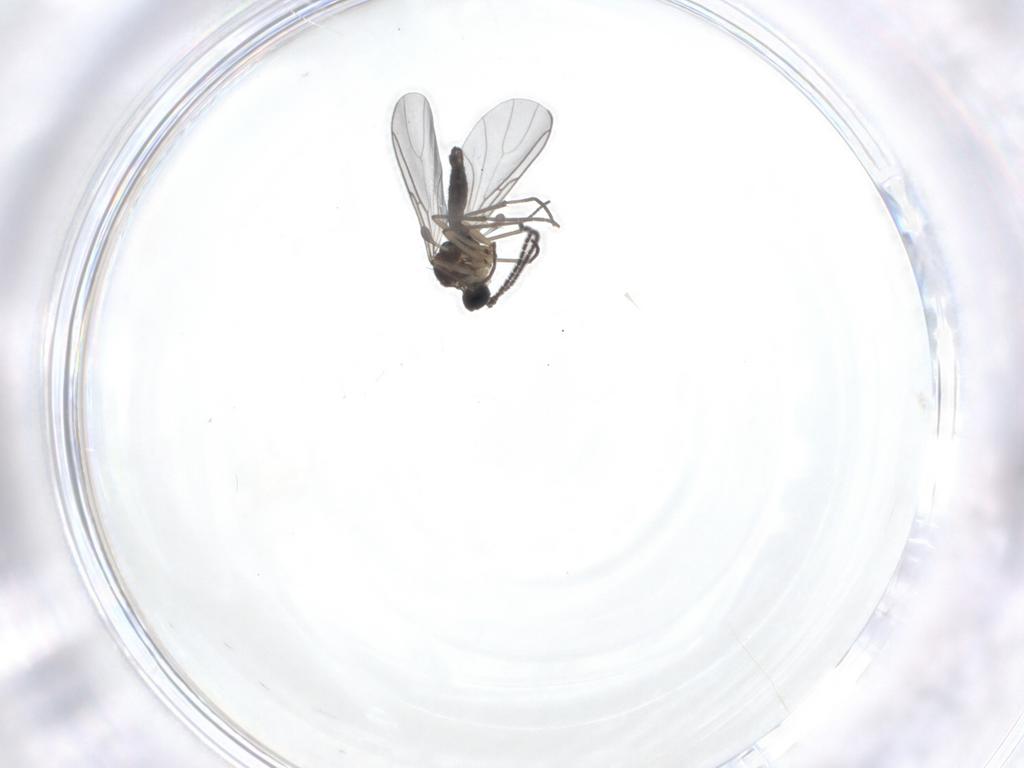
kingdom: Animalia
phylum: Arthropoda
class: Insecta
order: Diptera
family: Sciaridae
